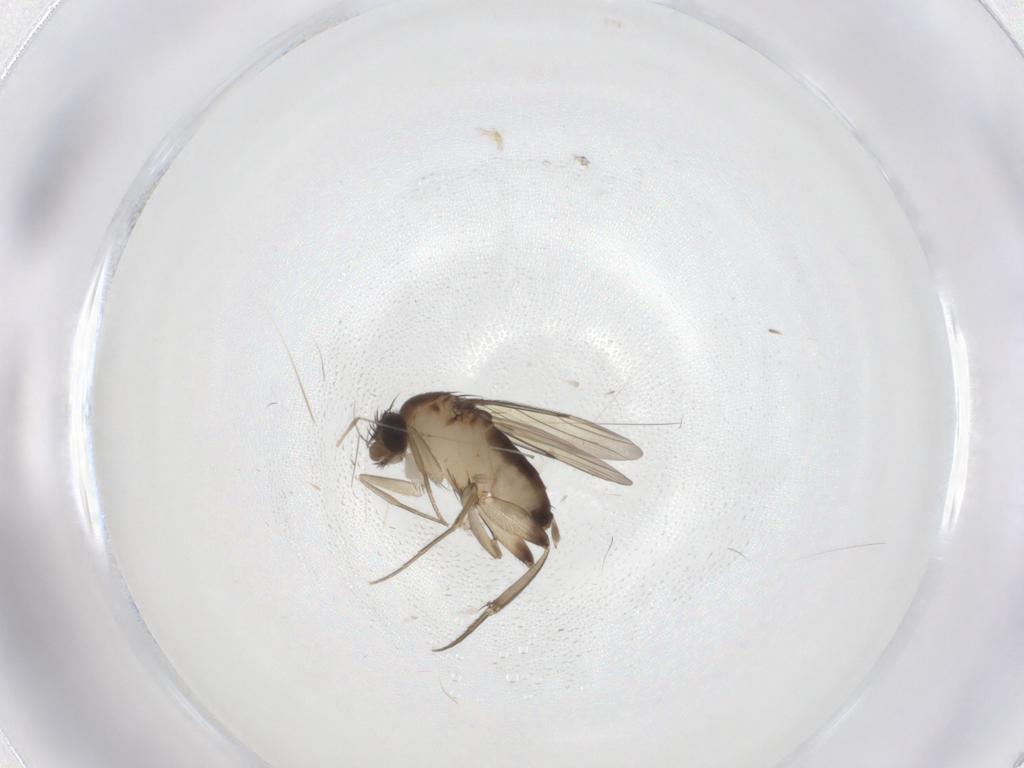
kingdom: Animalia
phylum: Arthropoda
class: Insecta
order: Diptera
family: Phoridae
